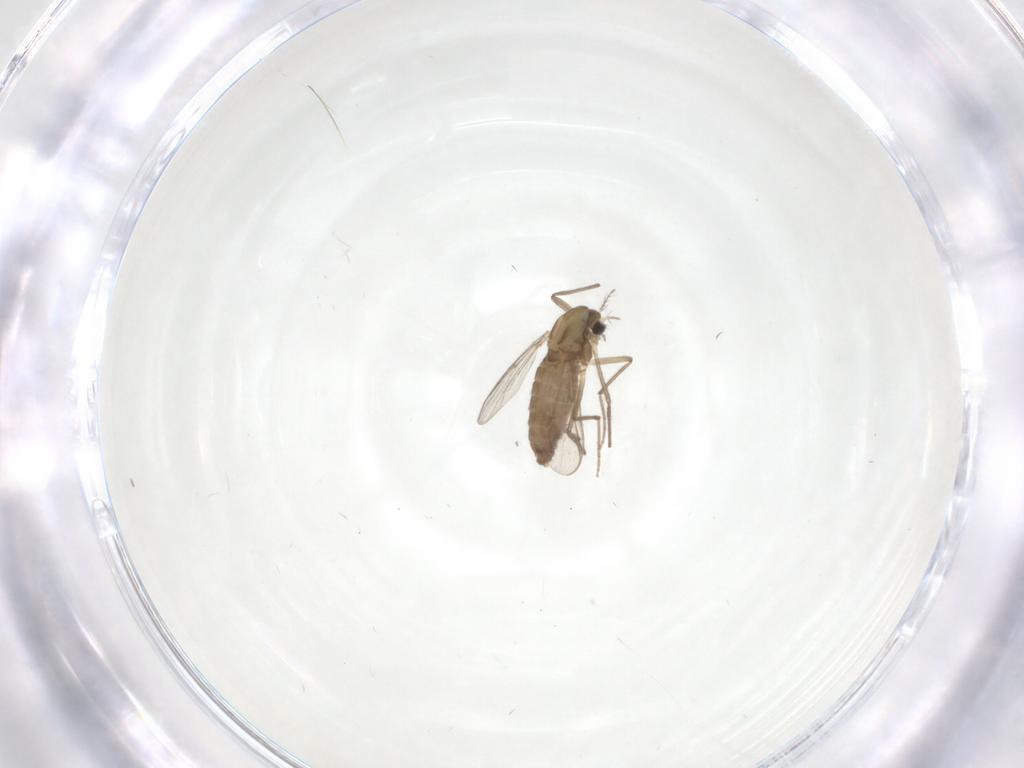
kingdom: Animalia
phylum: Arthropoda
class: Insecta
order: Diptera
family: Chironomidae
